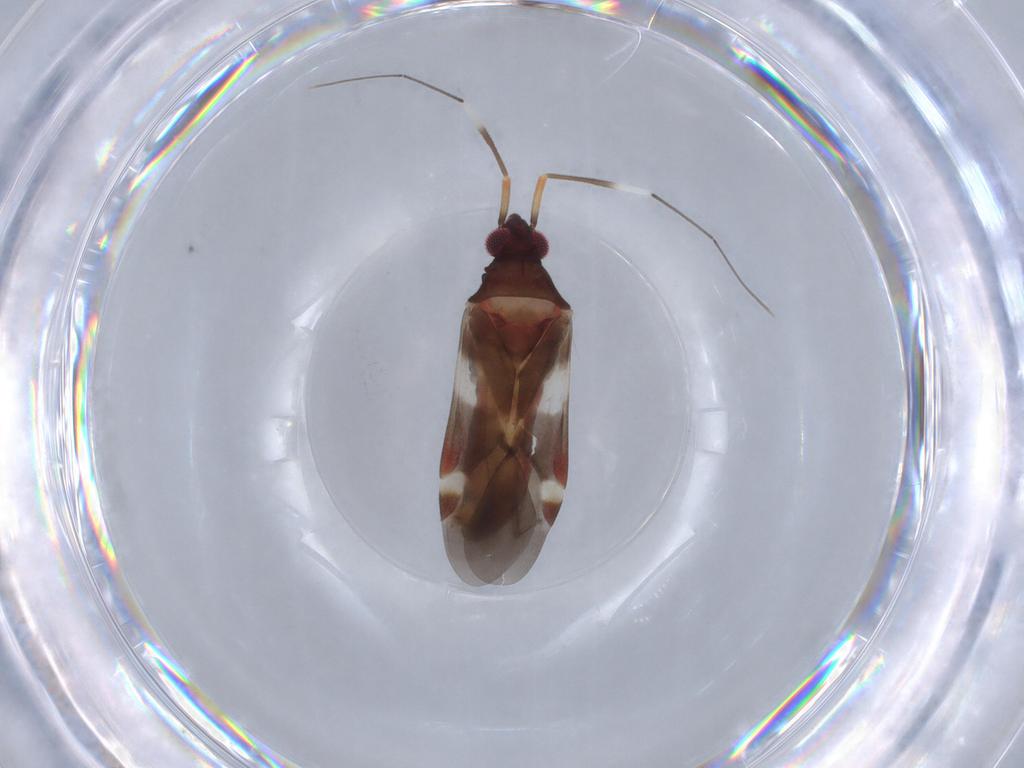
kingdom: Animalia
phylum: Arthropoda
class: Insecta
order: Hemiptera
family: Miridae
